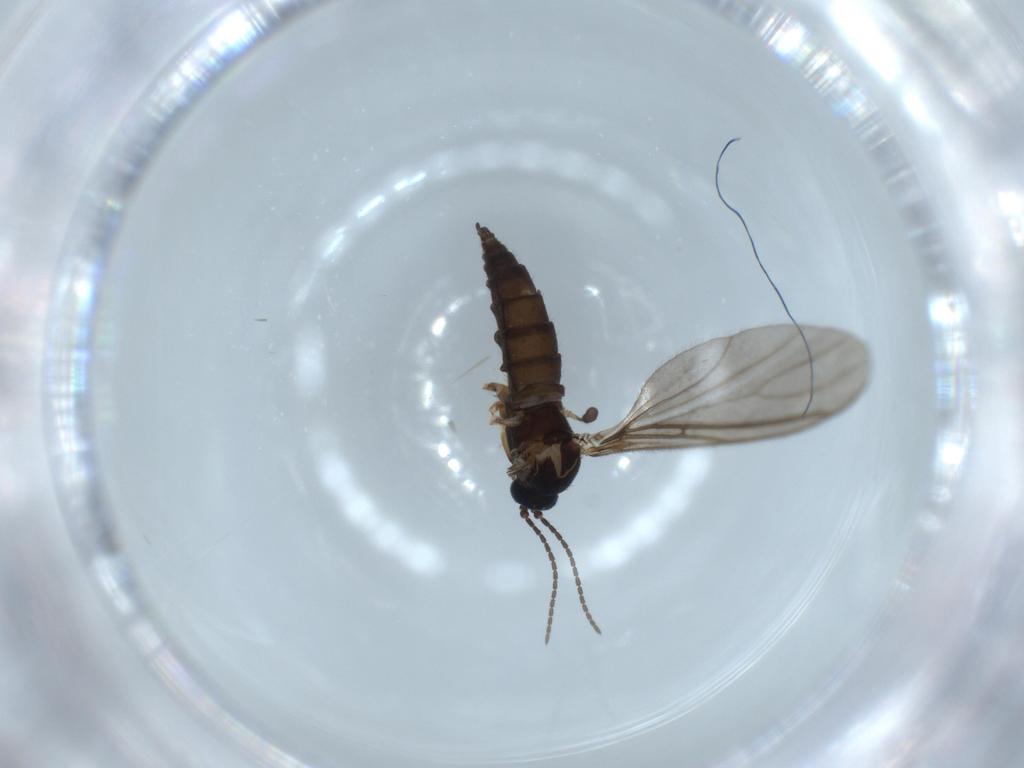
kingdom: Animalia
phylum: Arthropoda
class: Insecta
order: Diptera
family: Sciaridae
